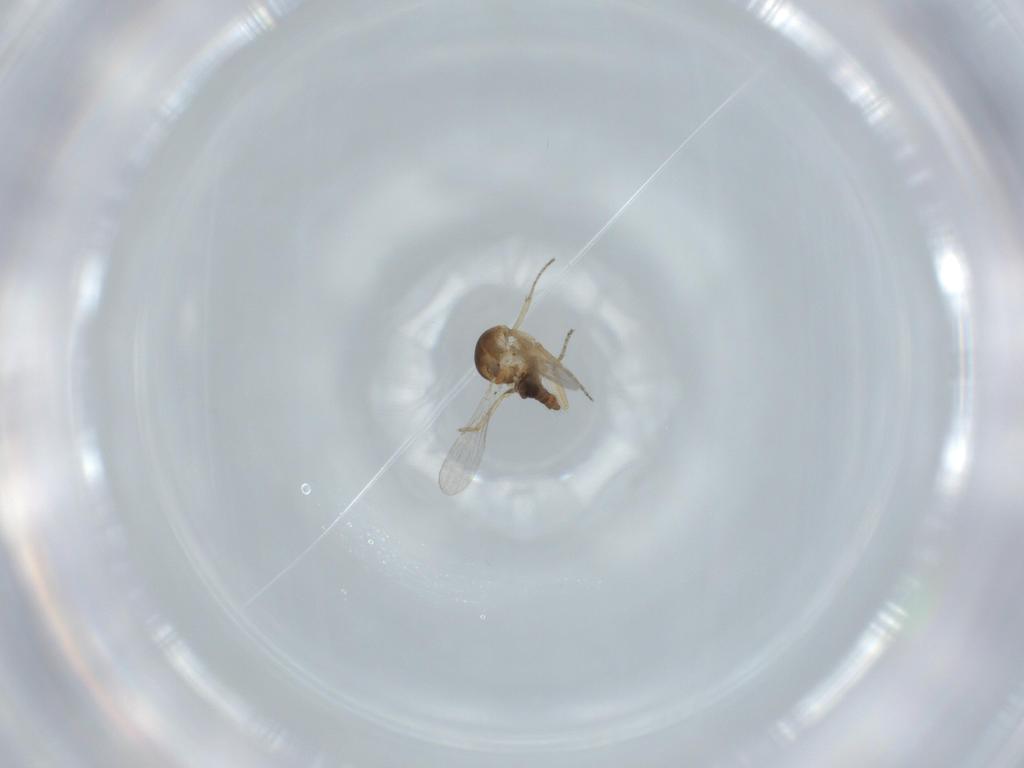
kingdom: Animalia
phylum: Arthropoda
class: Insecta
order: Diptera
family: Ceratopogonidae
